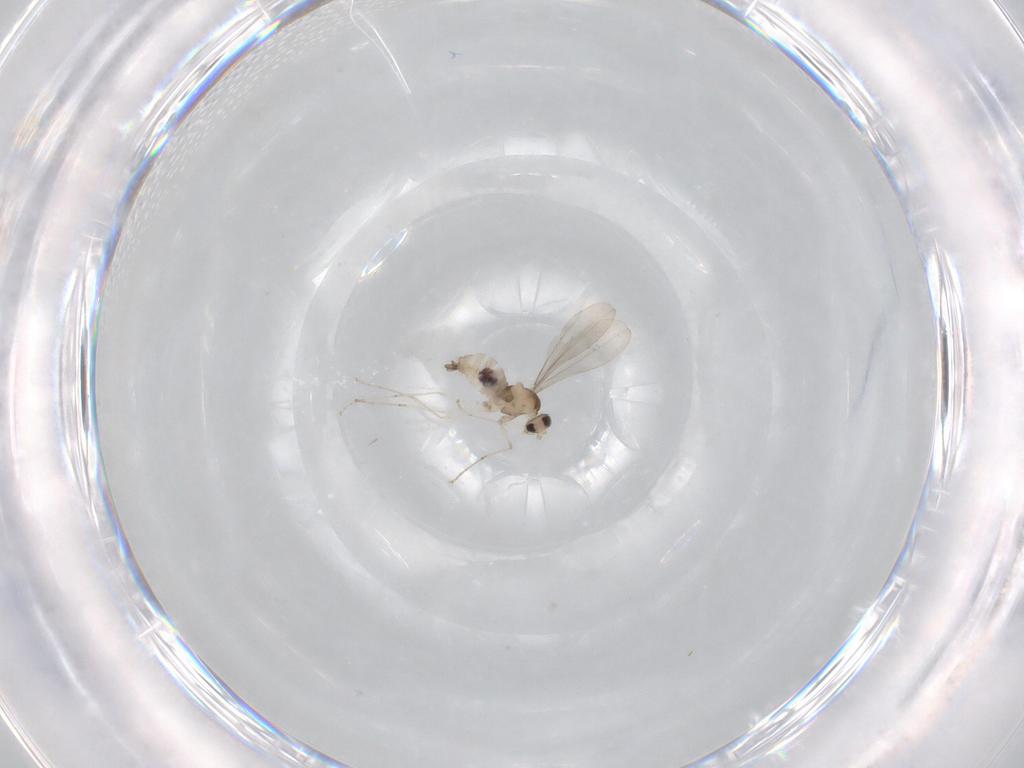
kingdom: Animalia
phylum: Arthropoda
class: Insecta
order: Diptera
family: Cecidomyiidae
